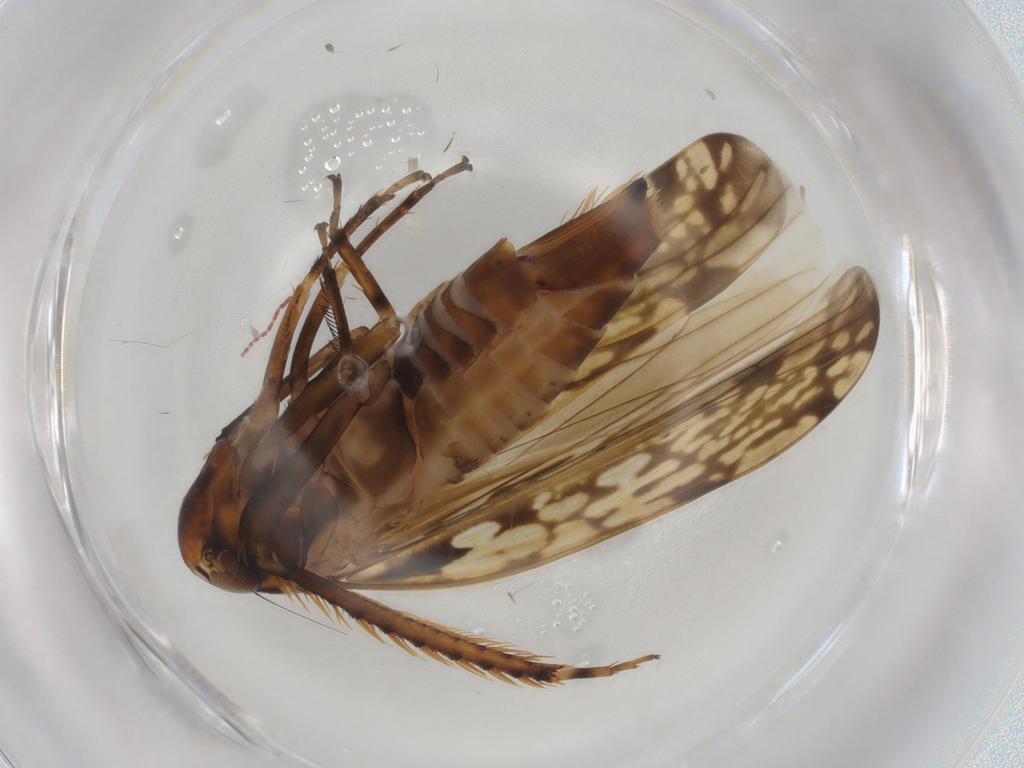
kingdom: Animalia
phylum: Arthropoda
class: Insecta
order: Hemiptera
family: Cicadellidae
